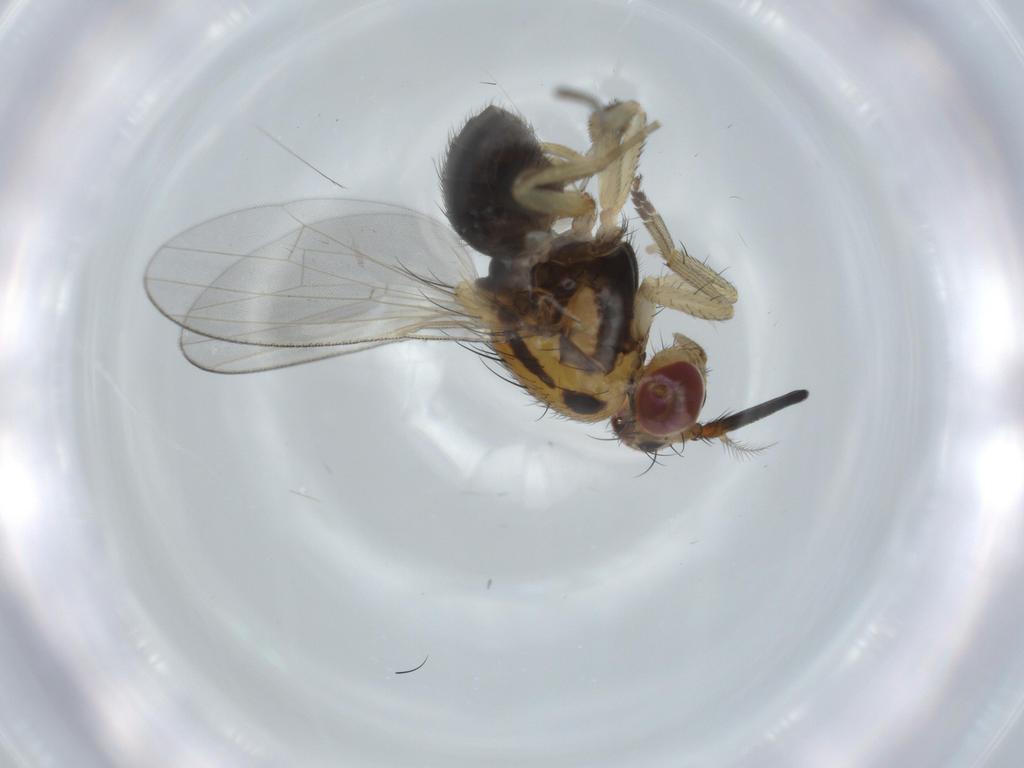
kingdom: Animalia
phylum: Arthropoda
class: Insecta
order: Diptera
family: Lauxaniidae
